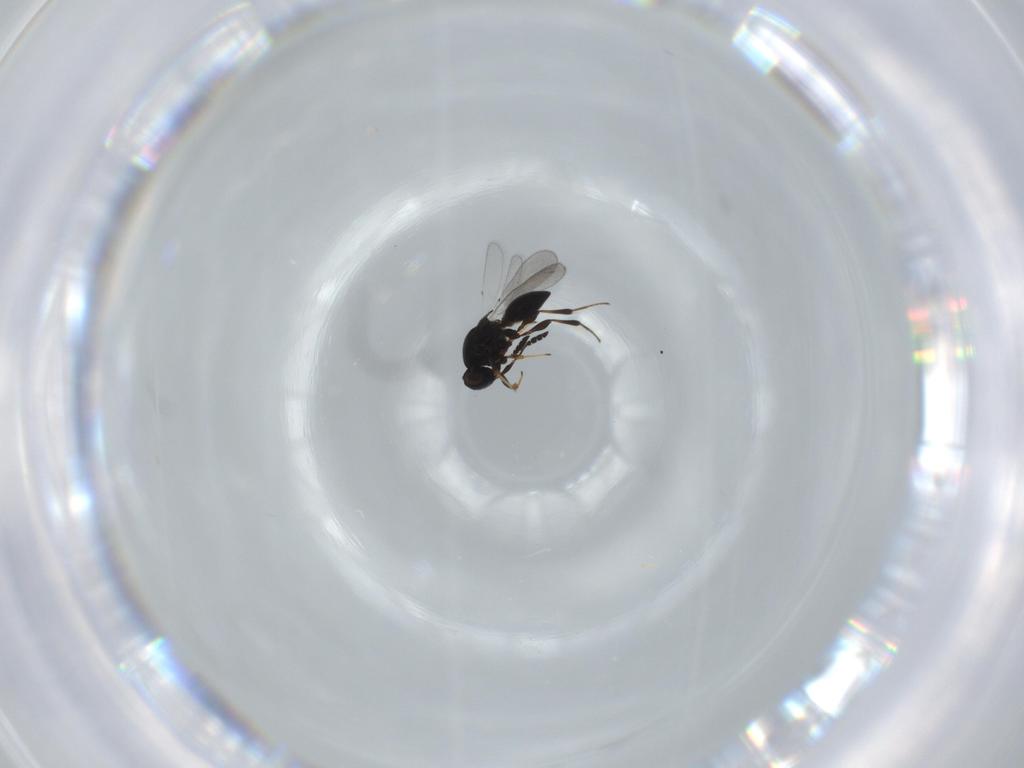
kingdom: Animalia
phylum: Arthropoda
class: Insecta
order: Hymenoptera
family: Platygastridae
